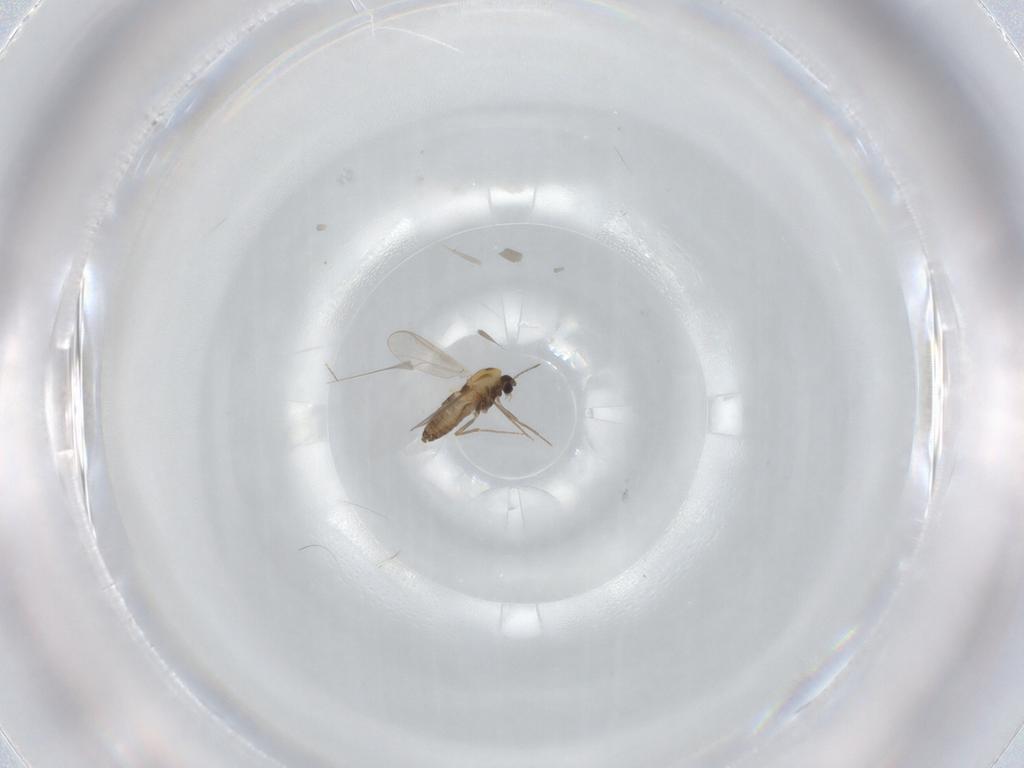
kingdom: Animalia
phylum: Arthropoda
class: Insecta
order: Diptera
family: Chironomidae
